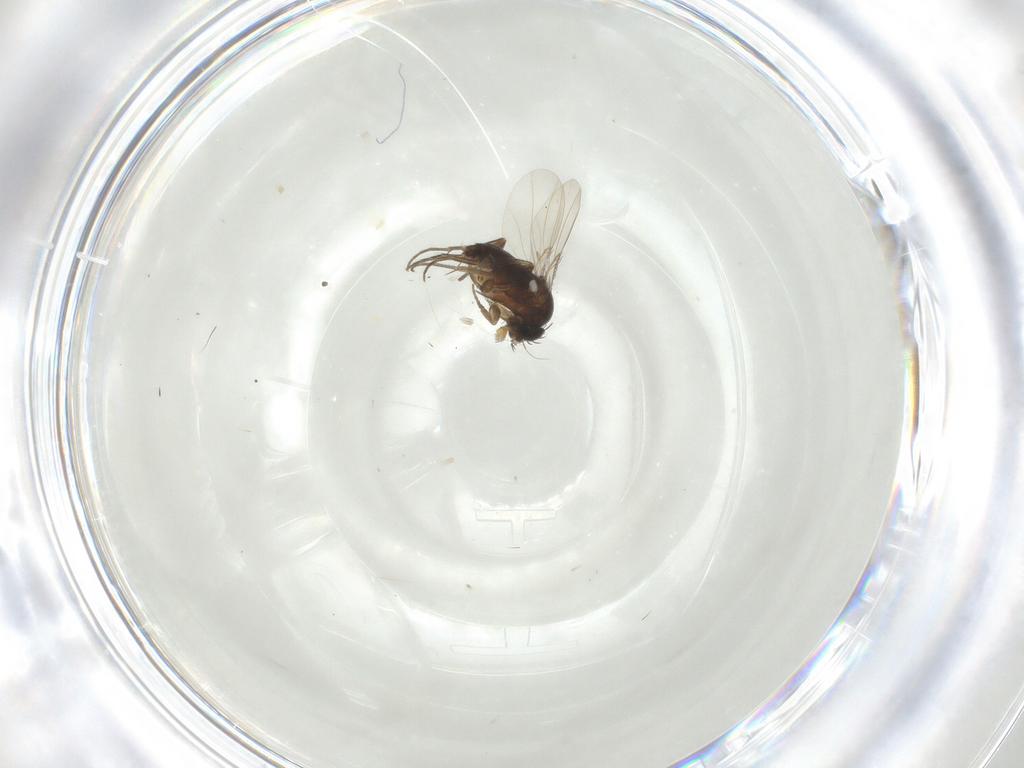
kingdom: Animalia
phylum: Arthropoda
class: Insecta
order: Diptera
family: Phoridae
